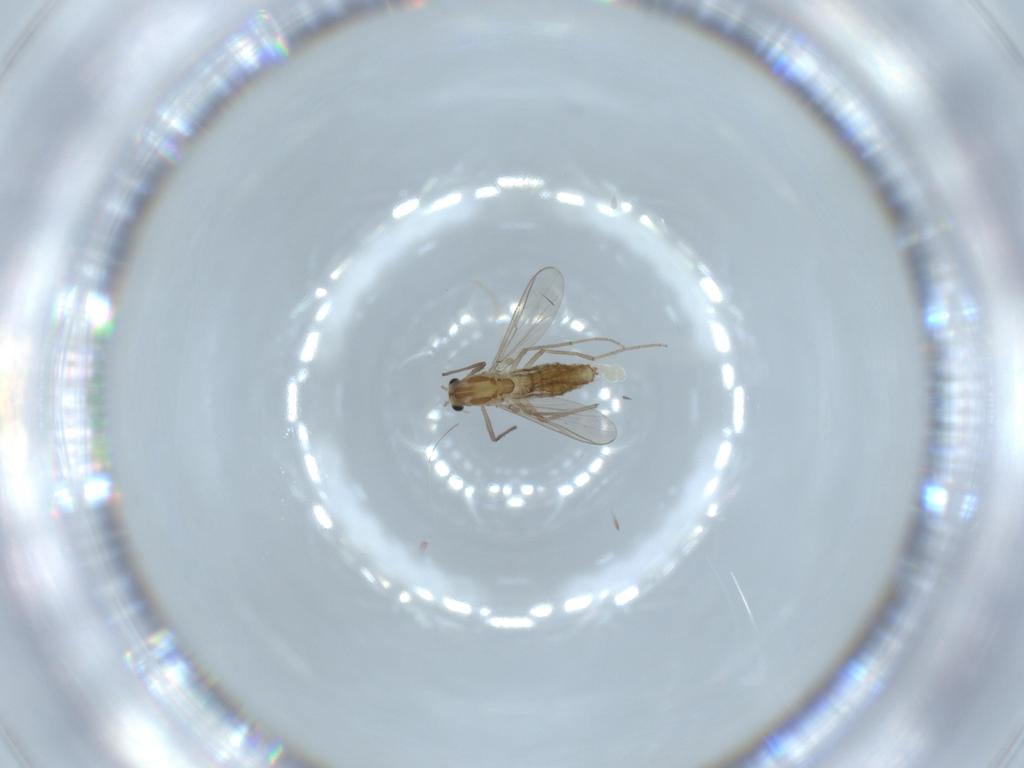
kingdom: Animalia
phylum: Arthropoda
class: Insecta
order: Diptera
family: Chironomidae
